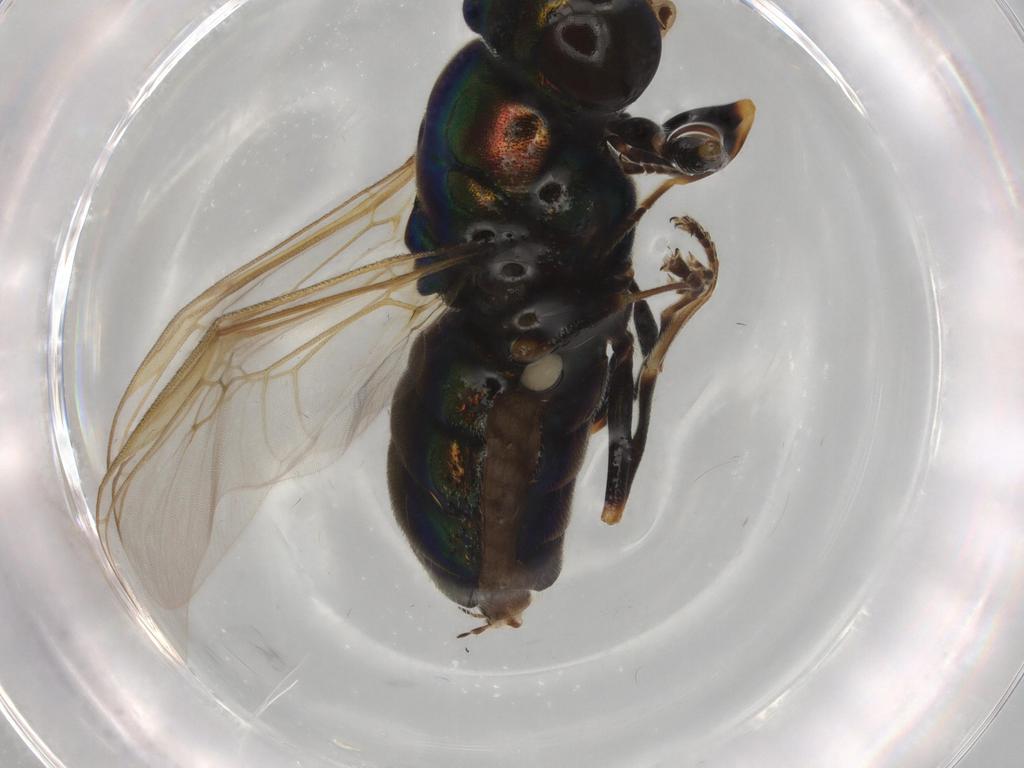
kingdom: Animalia
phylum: Arthropoda
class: Insecta
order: Diptera
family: Stratiomyidae
